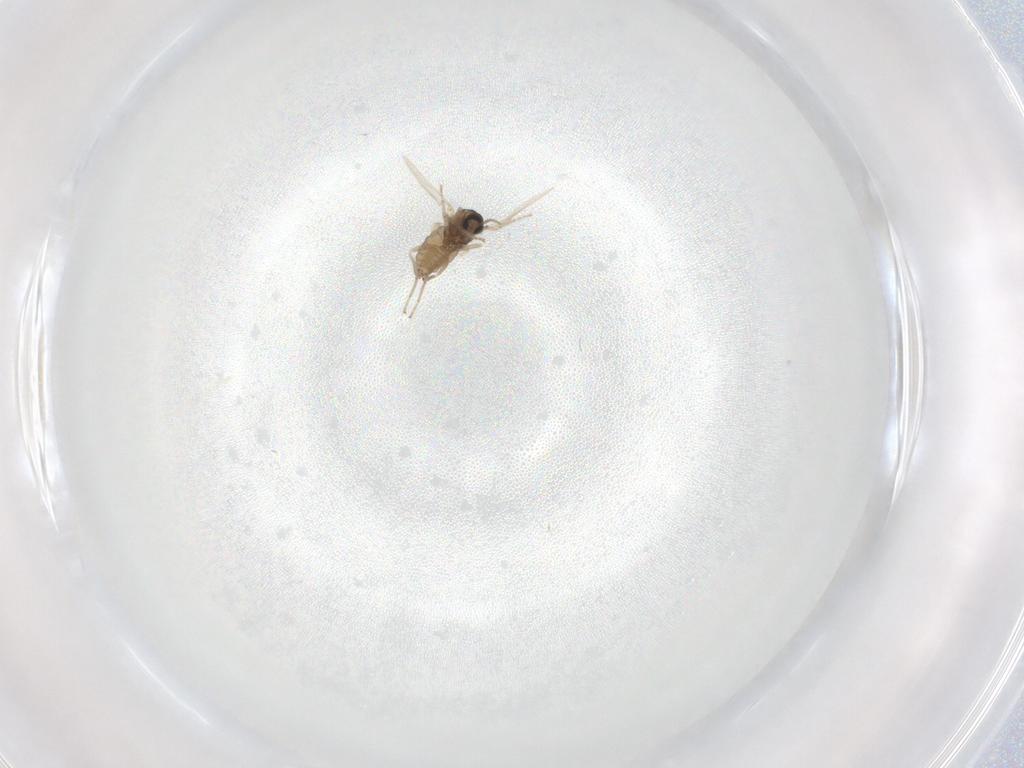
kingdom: Animalia
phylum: Arthropoda
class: Insecta
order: Diptera
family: Cecidomyiidae
